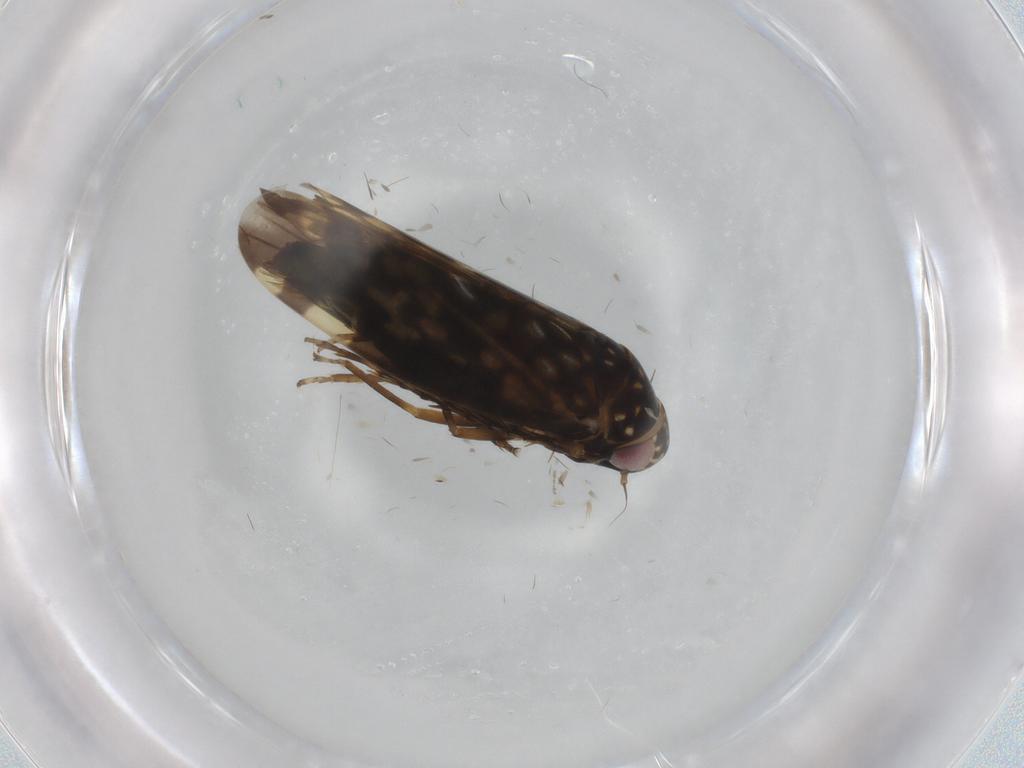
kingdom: Animalia
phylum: Arthropoda
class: Insecta
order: Hemiptera
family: Cicadellidae
